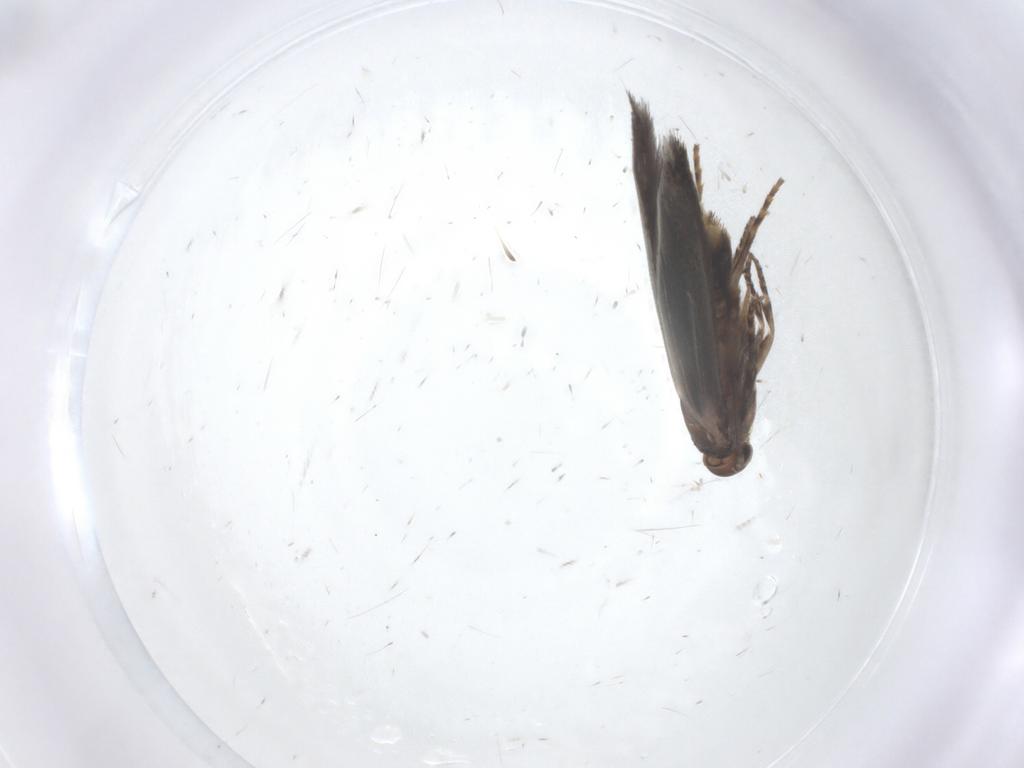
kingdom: Animalia
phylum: Arthropoda
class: Insecta
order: Lepidoptera
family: Elachistidae
